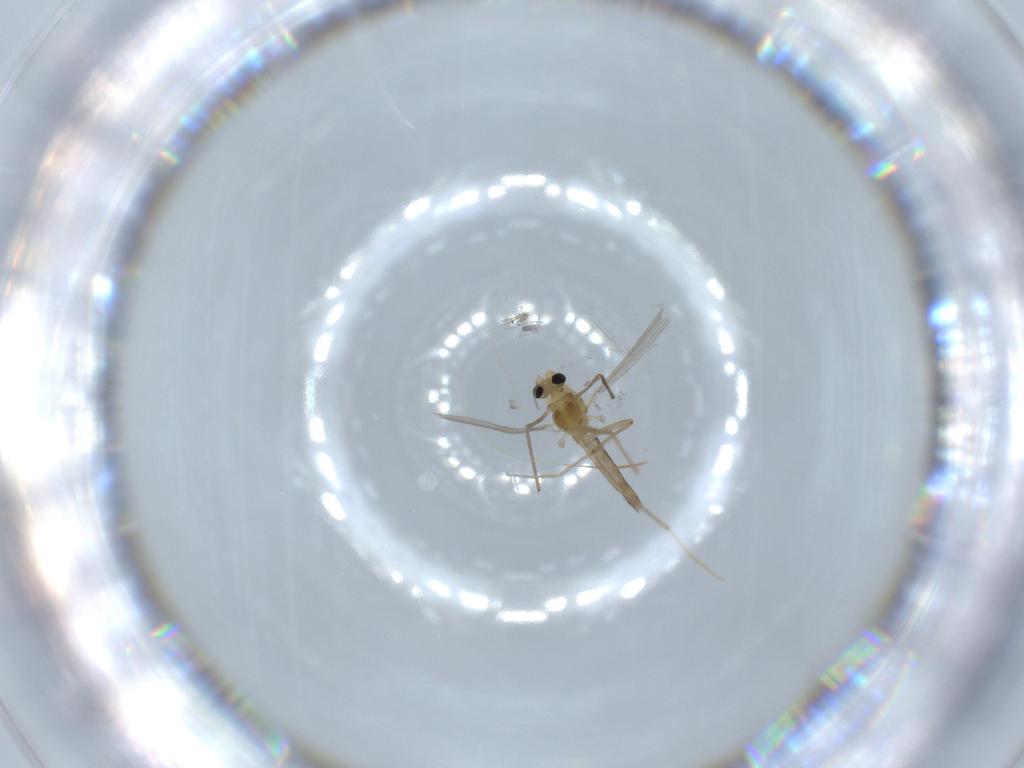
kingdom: Animalia
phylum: Arthropoda
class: Insecta
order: Diptera
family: Chironomidae
